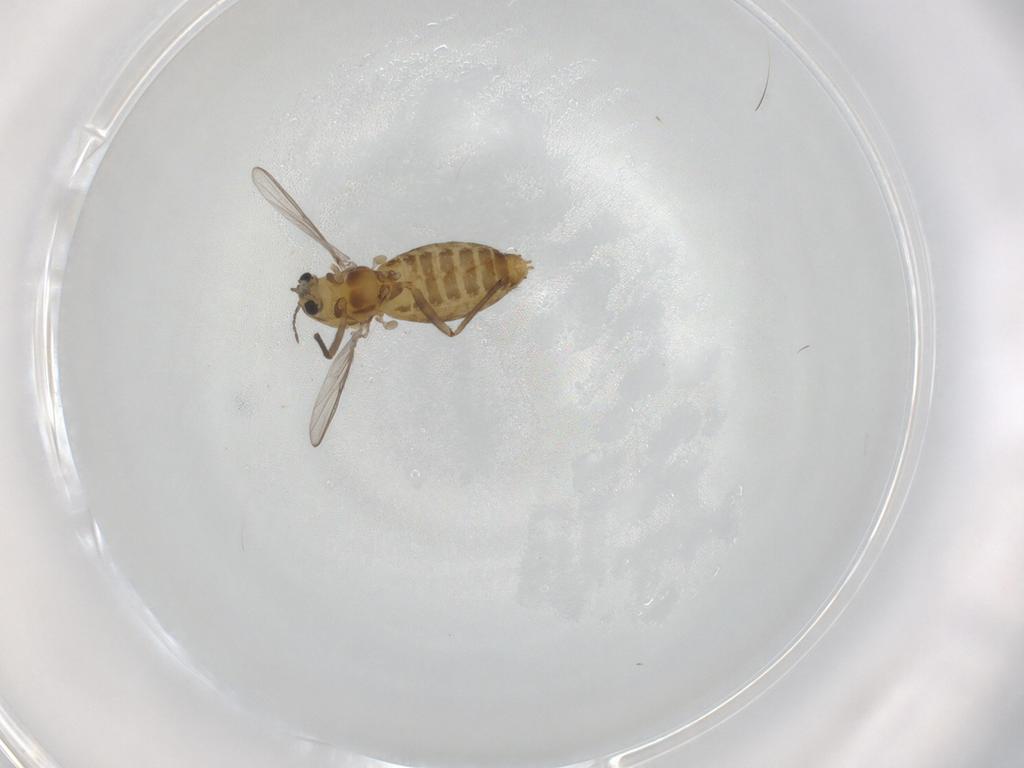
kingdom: Animalia
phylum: Arthropoda
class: Insecta
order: Diptera
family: Chironomidae
